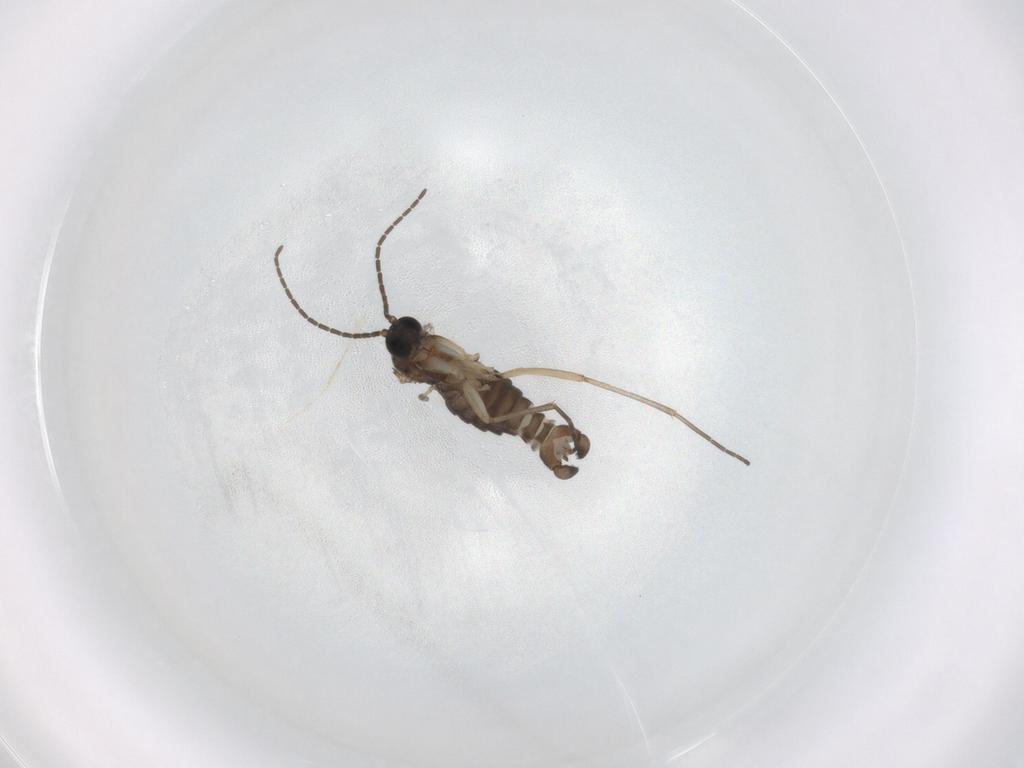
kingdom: Animalia
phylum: Arthropoda
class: Insecta
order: Diptera
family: Sciaridae
